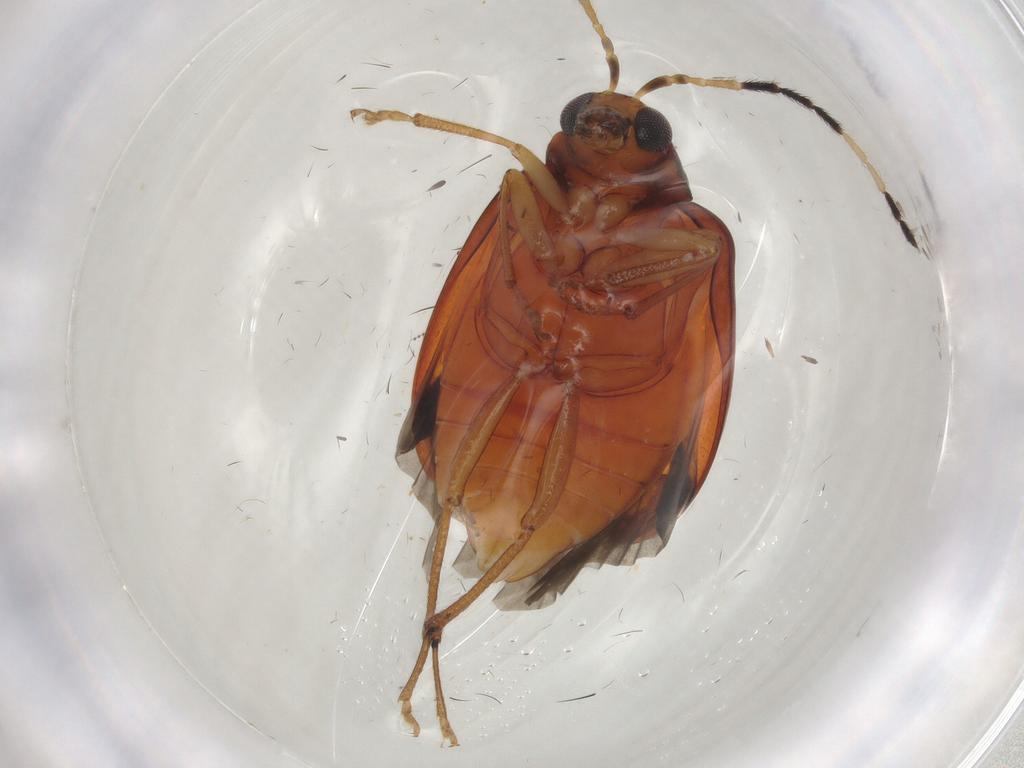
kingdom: Animalia
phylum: Arthropoda
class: Insecta
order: Coleoptera
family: Chrysomelidae
